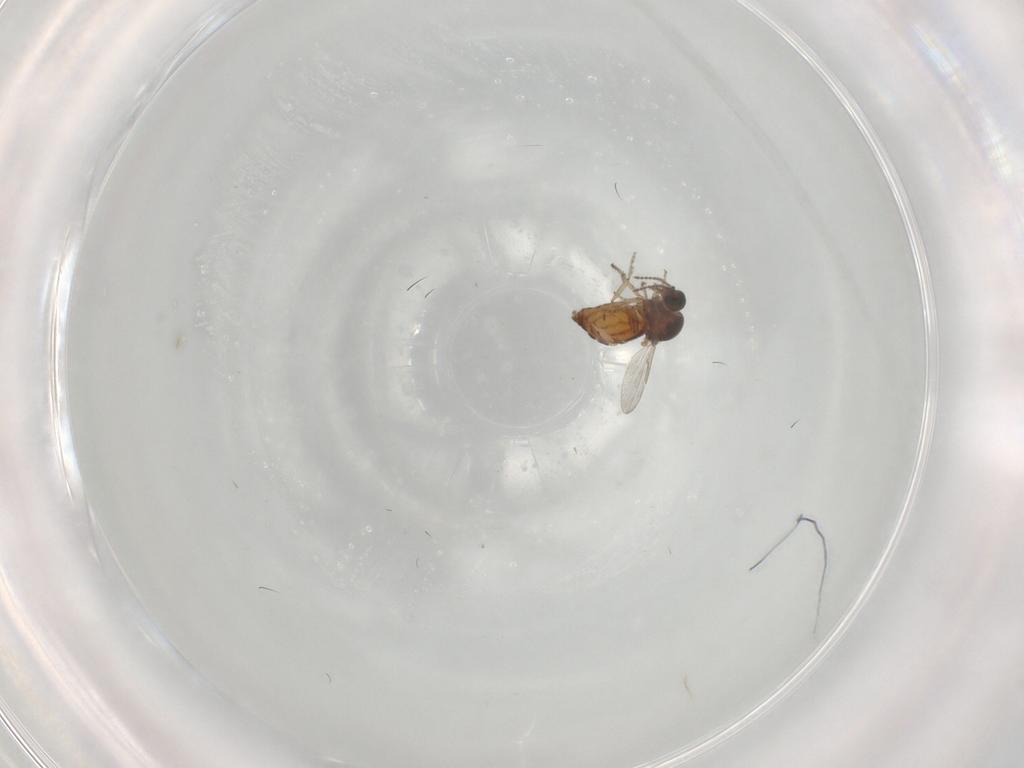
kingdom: Animalia
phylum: Arthropoda
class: Insecta
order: Diptera
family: Ceratopogonidae
